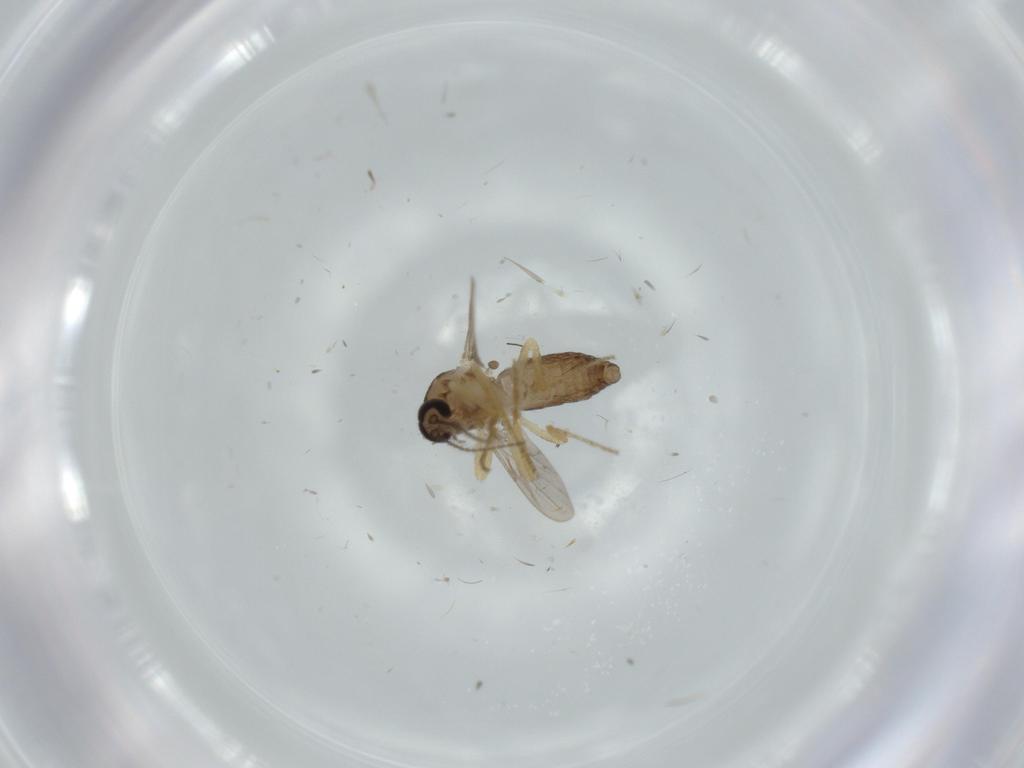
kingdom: Animalia
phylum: Arthropoda
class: Insecta
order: Diptera
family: Ceratopogonidae
